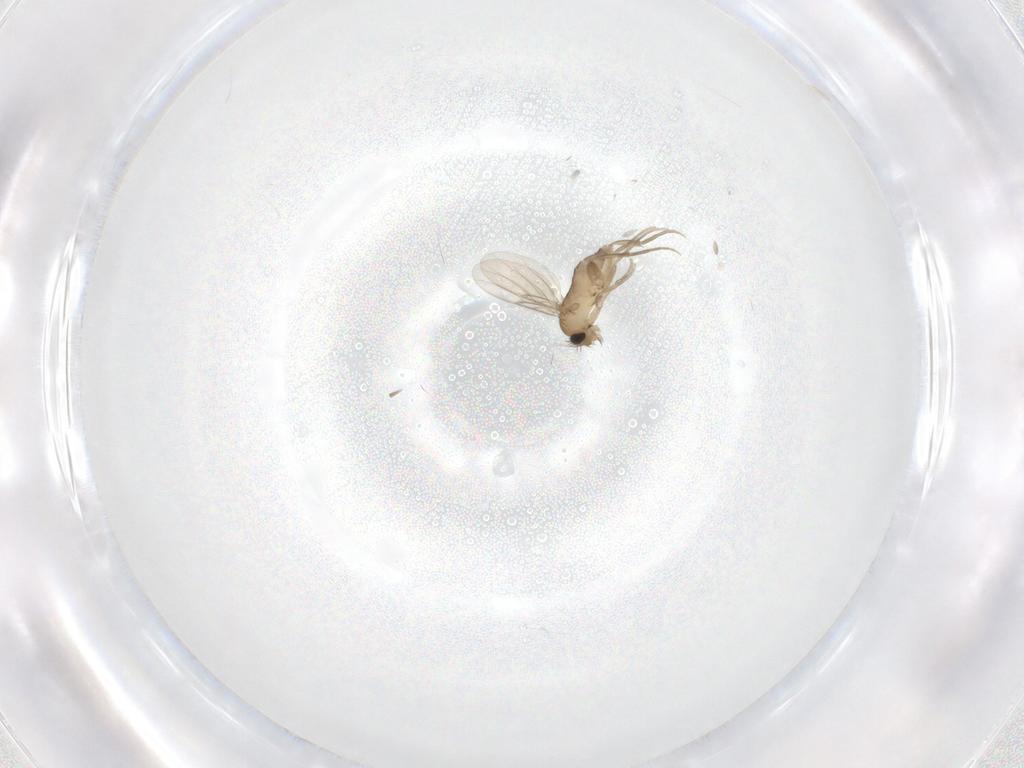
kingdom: Animalia
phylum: Arthropoda
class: Insecta
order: Diptera
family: Phoridae
